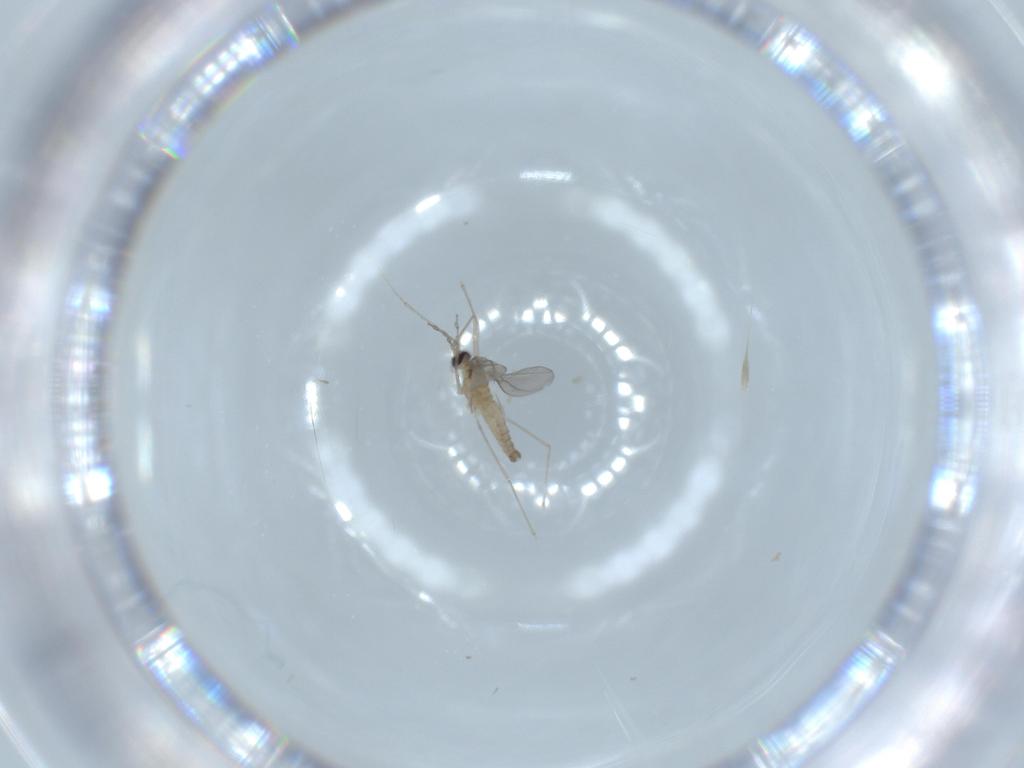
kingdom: Animalia
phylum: Arthropoda
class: Insecta
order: Diptera
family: Cecidomyiidae
